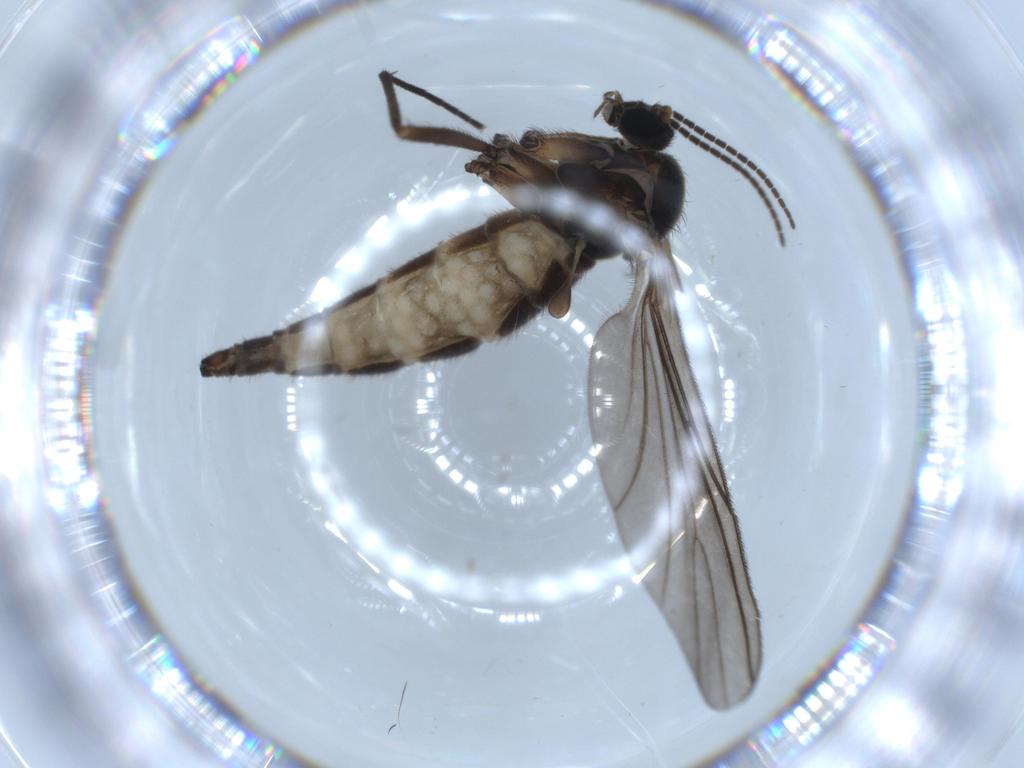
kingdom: Animalia
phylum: Arthropoda
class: Insecta
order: Diptera
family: Sciaridae
